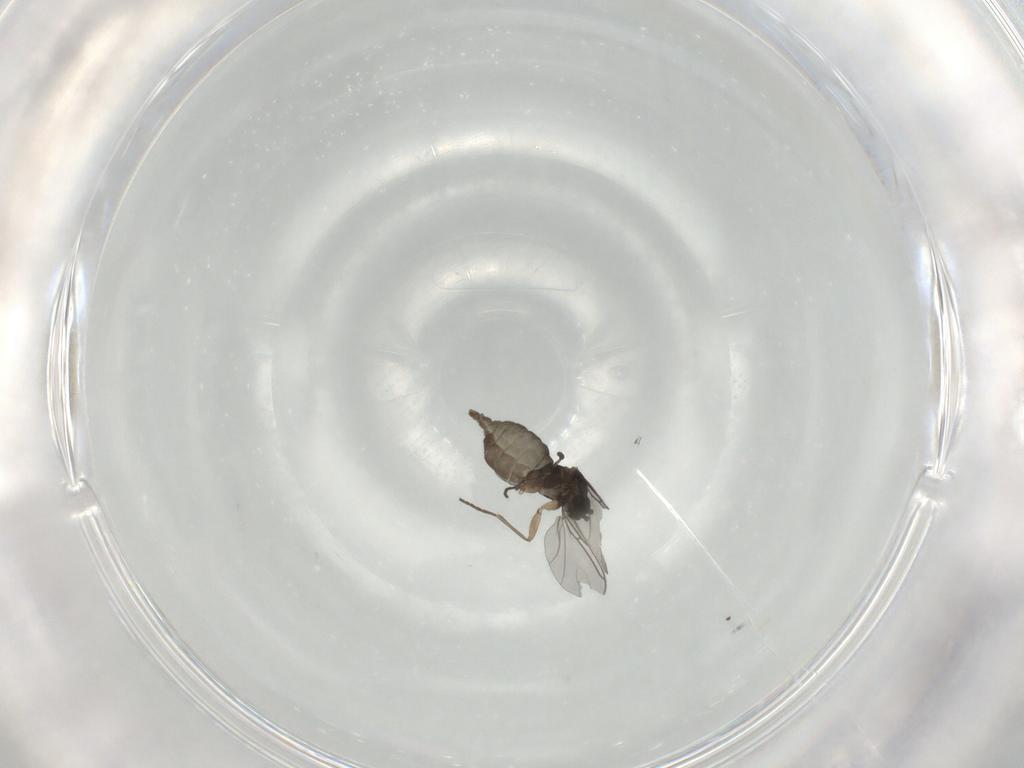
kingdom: Animalia
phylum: Arthropoda
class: Insecta
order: Diptera
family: Sciaridae
